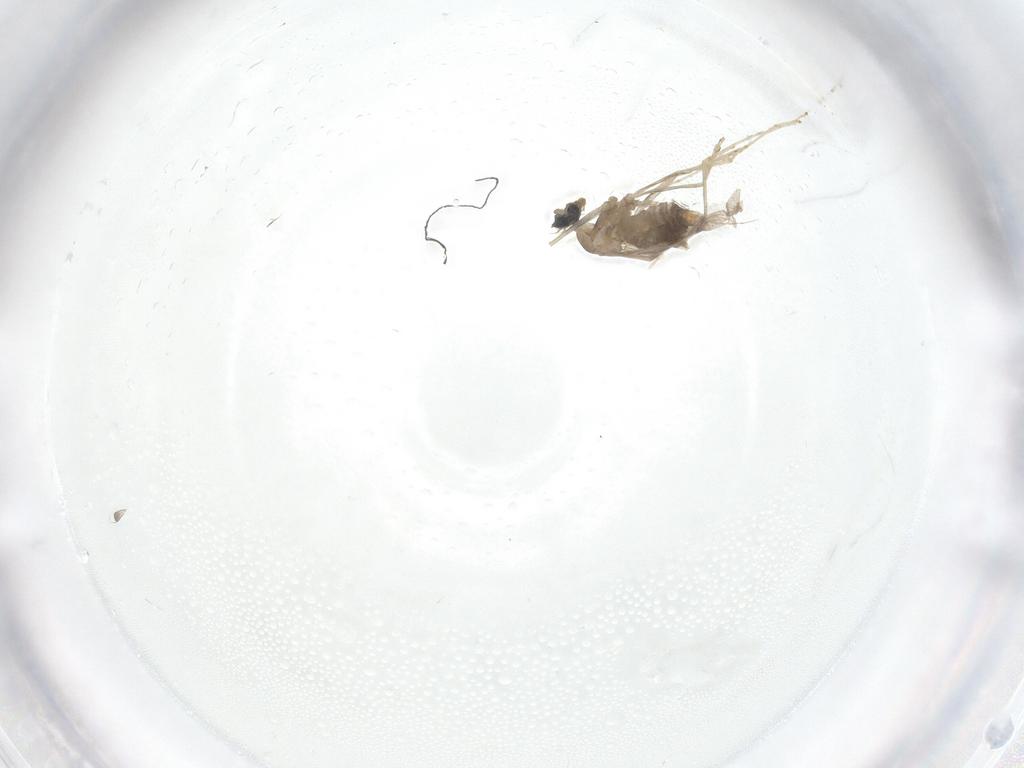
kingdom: Animalia
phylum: Arthropoda
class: Insecta
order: Diptera
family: Cecidomyiidae
